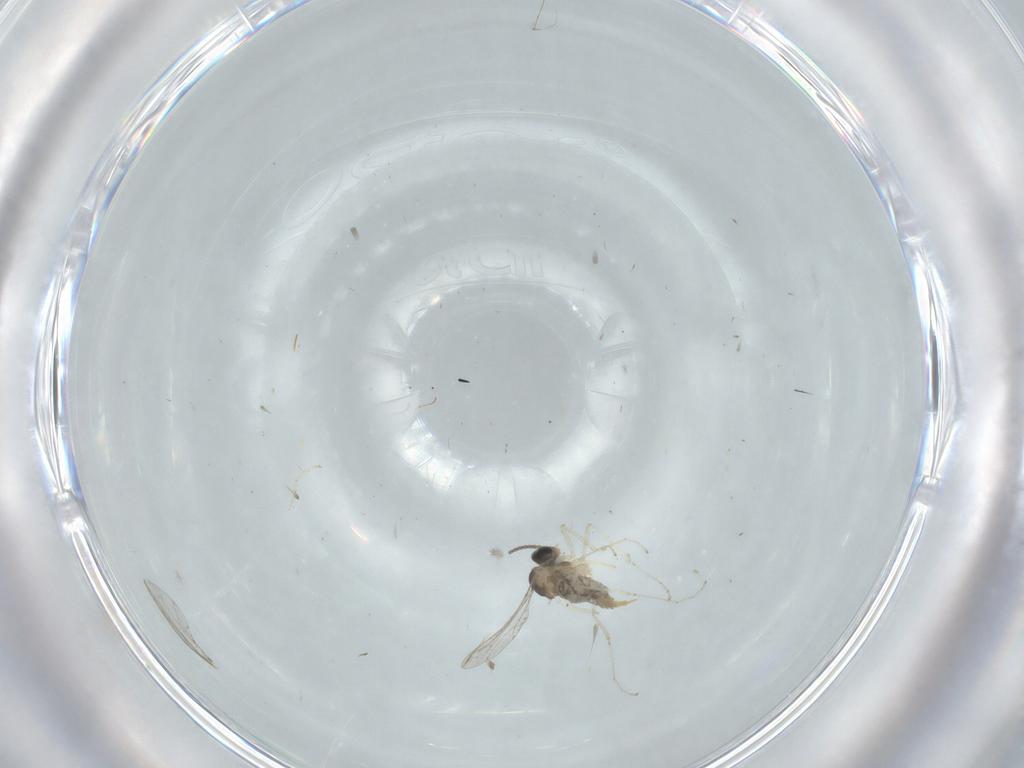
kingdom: Animalia
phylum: Arthropoda
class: Insecta
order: Diptera
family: Cecidomyiidae
